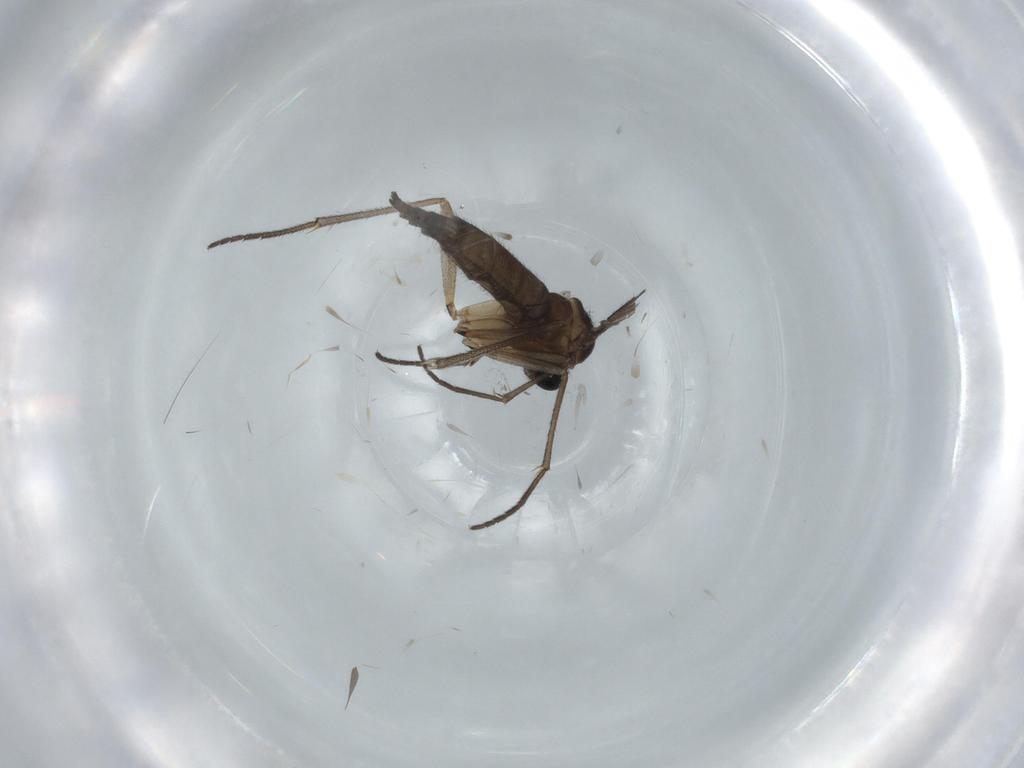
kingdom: Animalia
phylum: Arthropoda
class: Insecta
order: Diptera
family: Sciaridae
